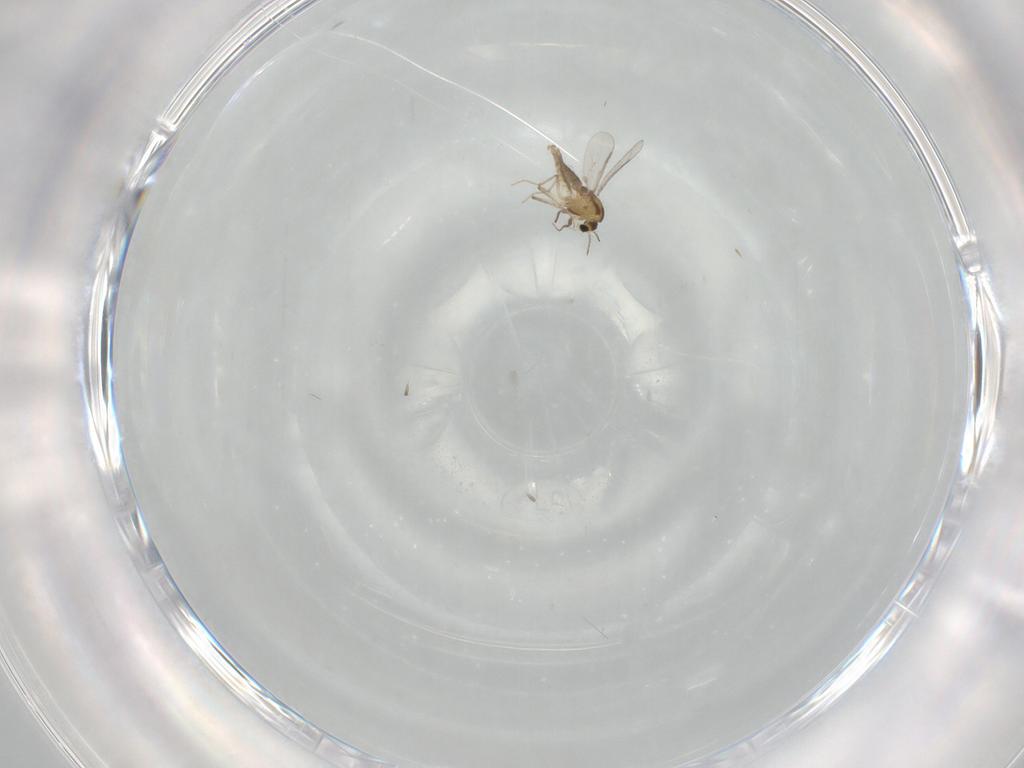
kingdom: Animalia
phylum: Arthropoda
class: Insecta
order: Diptera
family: Chironomidae
